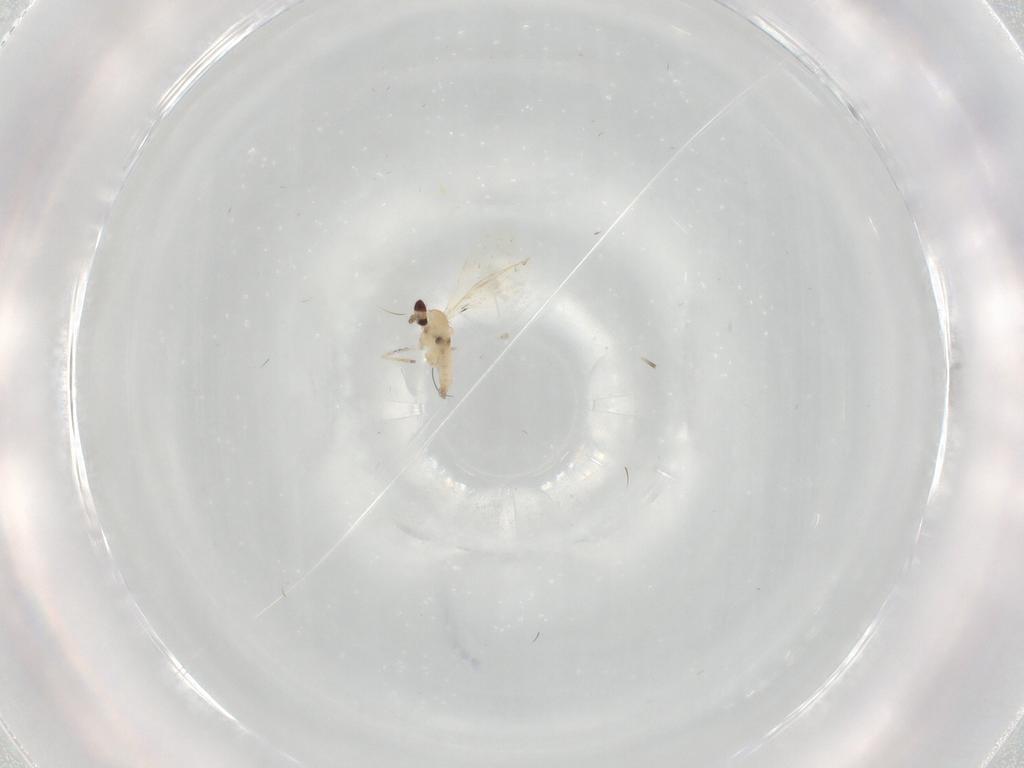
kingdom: Animalia
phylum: Arthropoda
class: Insecta
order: Diptera
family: Cecidomyiidae
